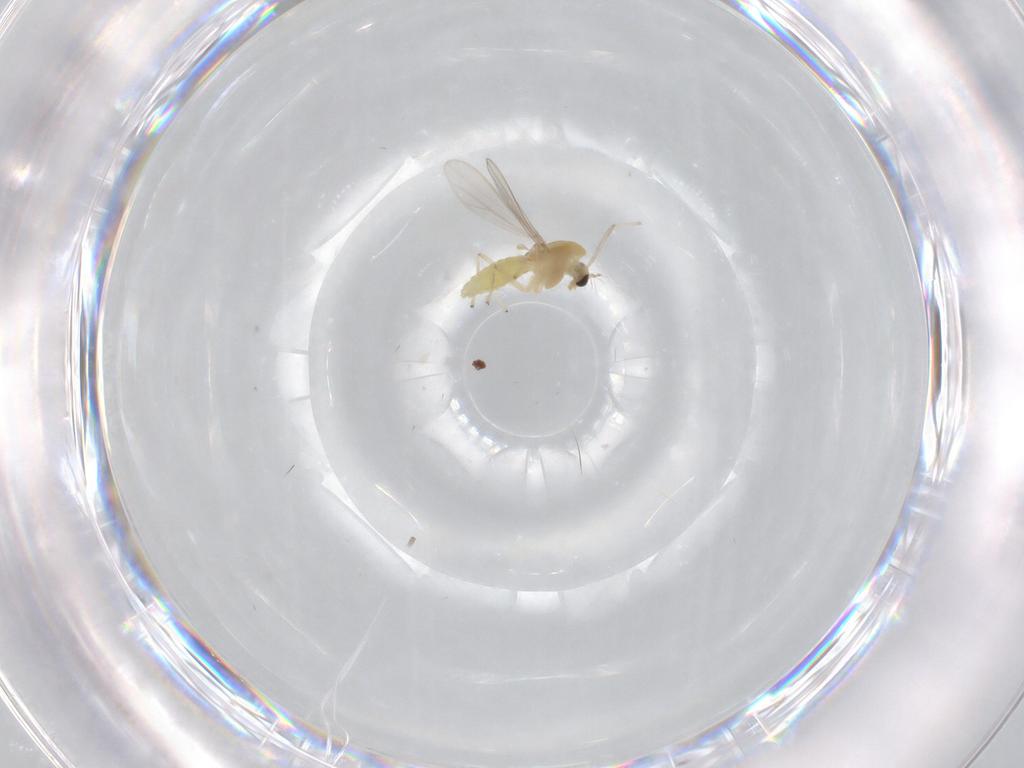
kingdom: Animalia
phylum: Arthropoda
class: Insecta
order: Diptera
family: Chironomidae
